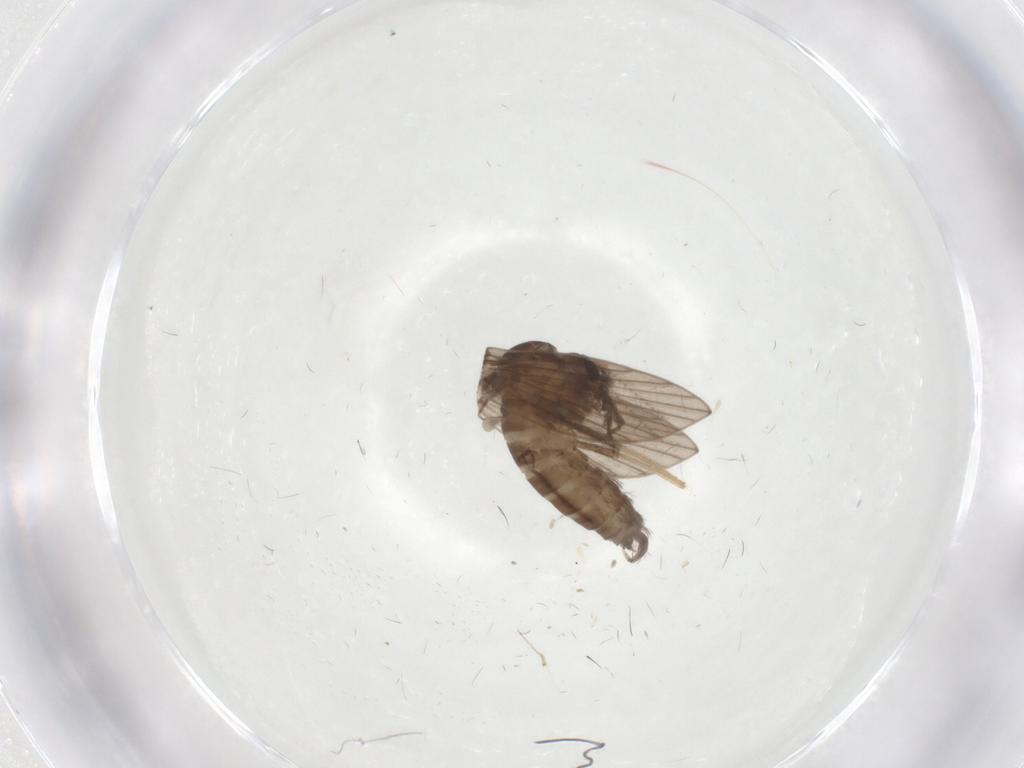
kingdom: Animalia
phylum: Arthropoda
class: Insecta
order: Diptera
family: Psychodidae
